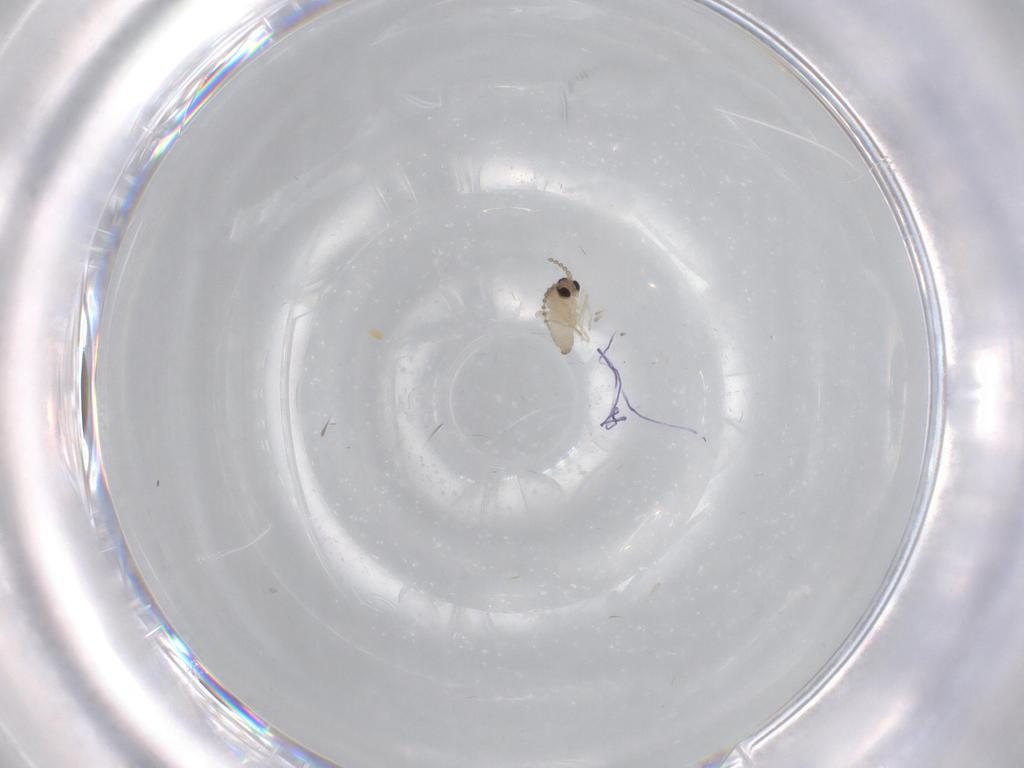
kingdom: Animalia
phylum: Arthropoda
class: Insecta
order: Diptera
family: Cecidomyiidae
